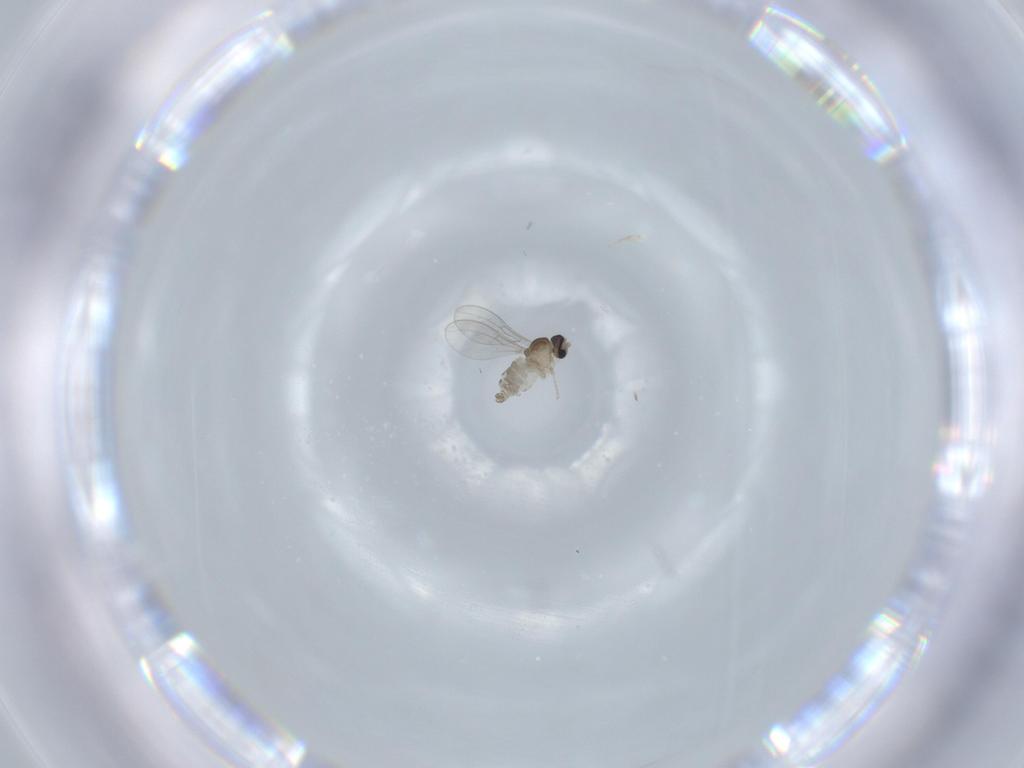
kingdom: Animalia
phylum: Arthropoda
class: Insecta
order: Diptera
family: Cecidomyiidae
